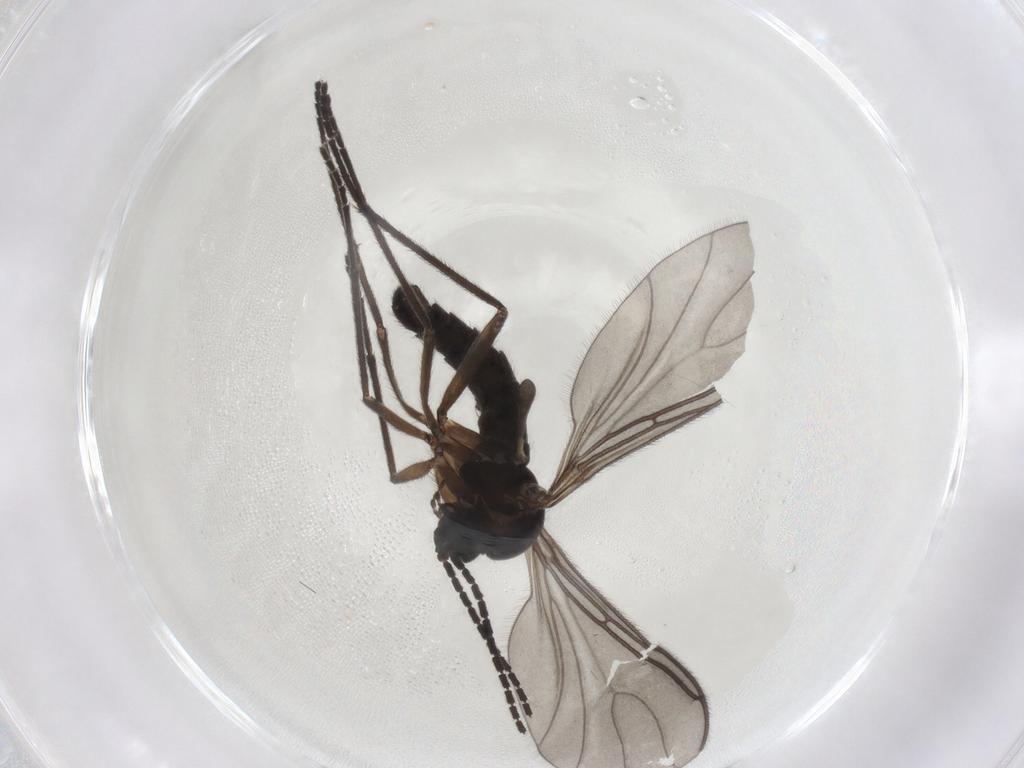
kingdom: Animalia
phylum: Arthropoda
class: Insecta
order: Diptera
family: Sciaridae
